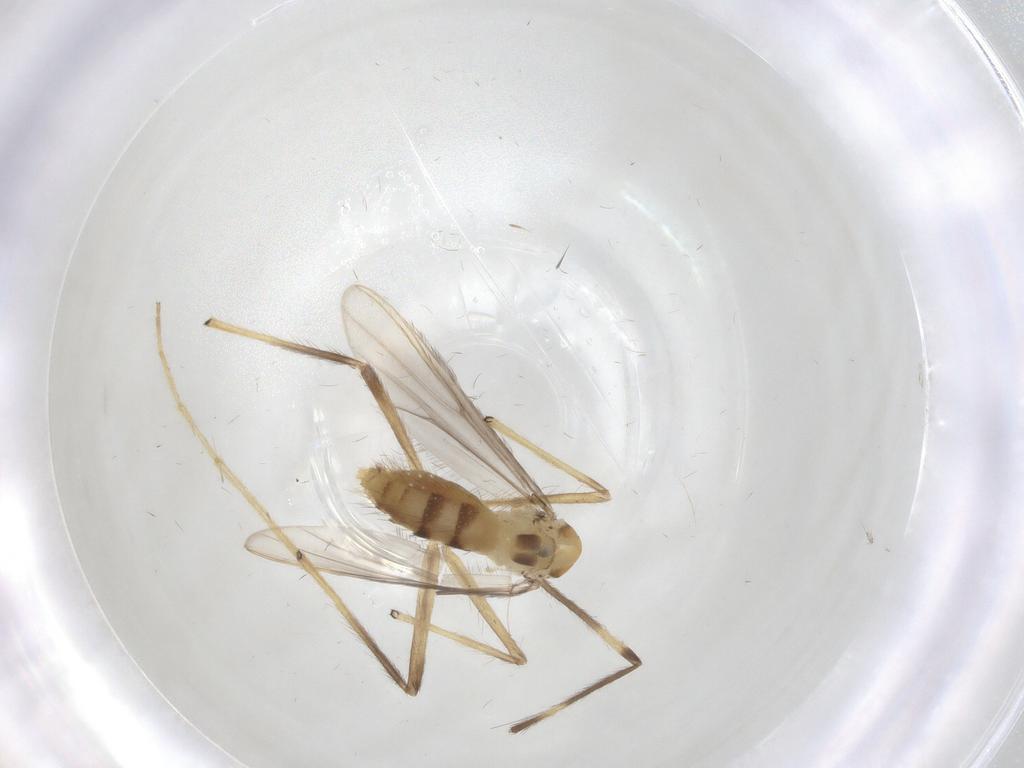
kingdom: Animalia
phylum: Arthropoda
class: Insecta
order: Diptera
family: Chironomidae
